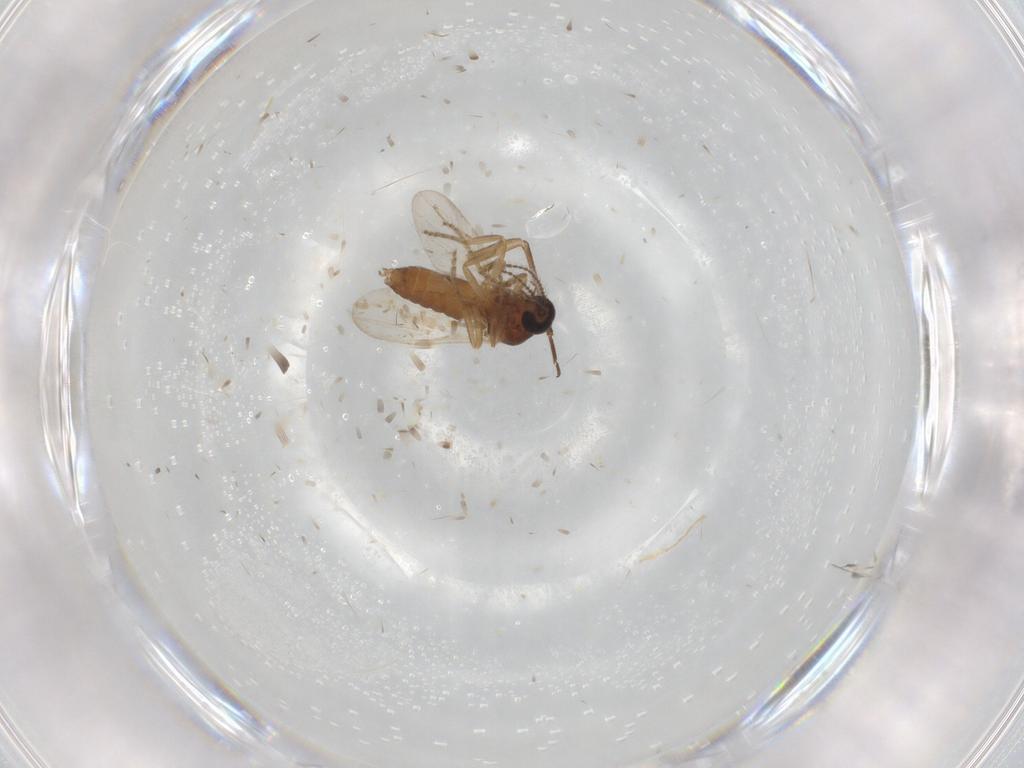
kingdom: Animalia
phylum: Arthropoda
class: Insecta
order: Diptera
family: Ceratopogonidae
